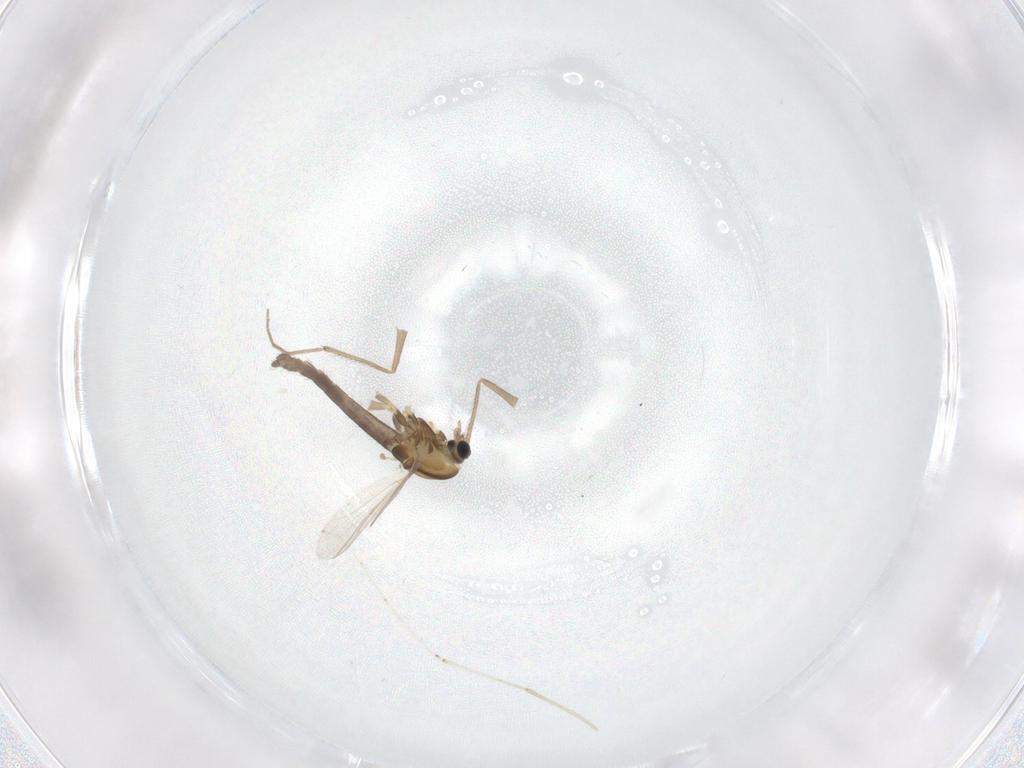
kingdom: Animalia
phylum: Arthropoda
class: Insecta
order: Diptera
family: Chironomidae
